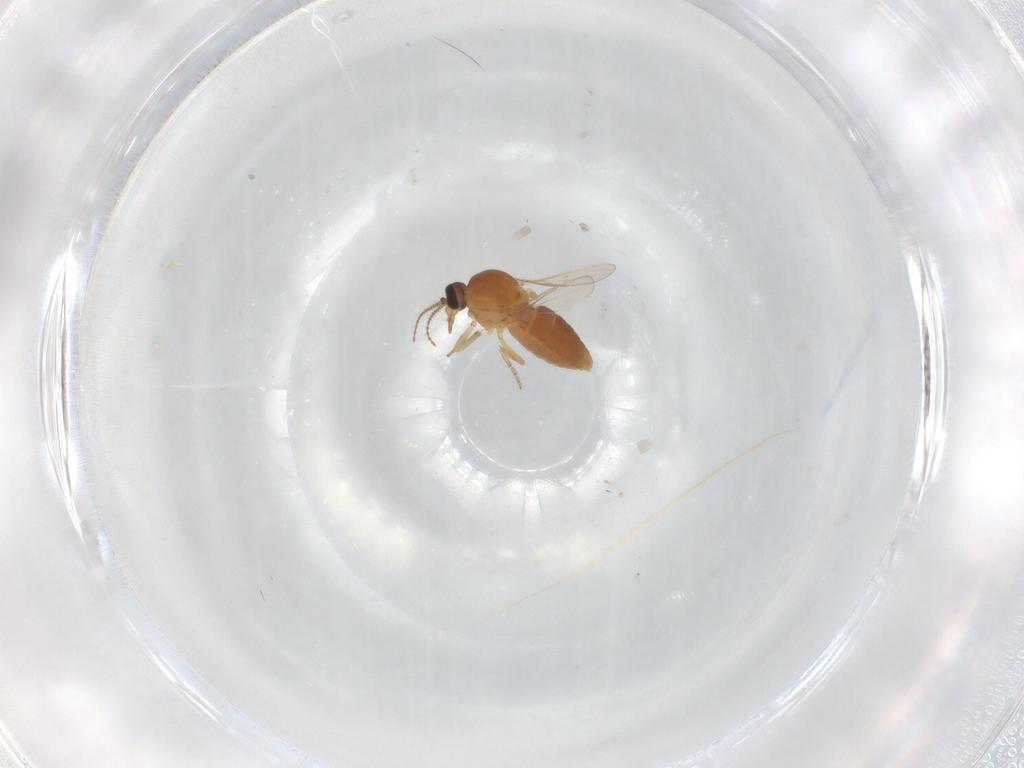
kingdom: Animalia
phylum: Arthropoda
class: Insecta
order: Diptera
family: Ceratopogonidae
